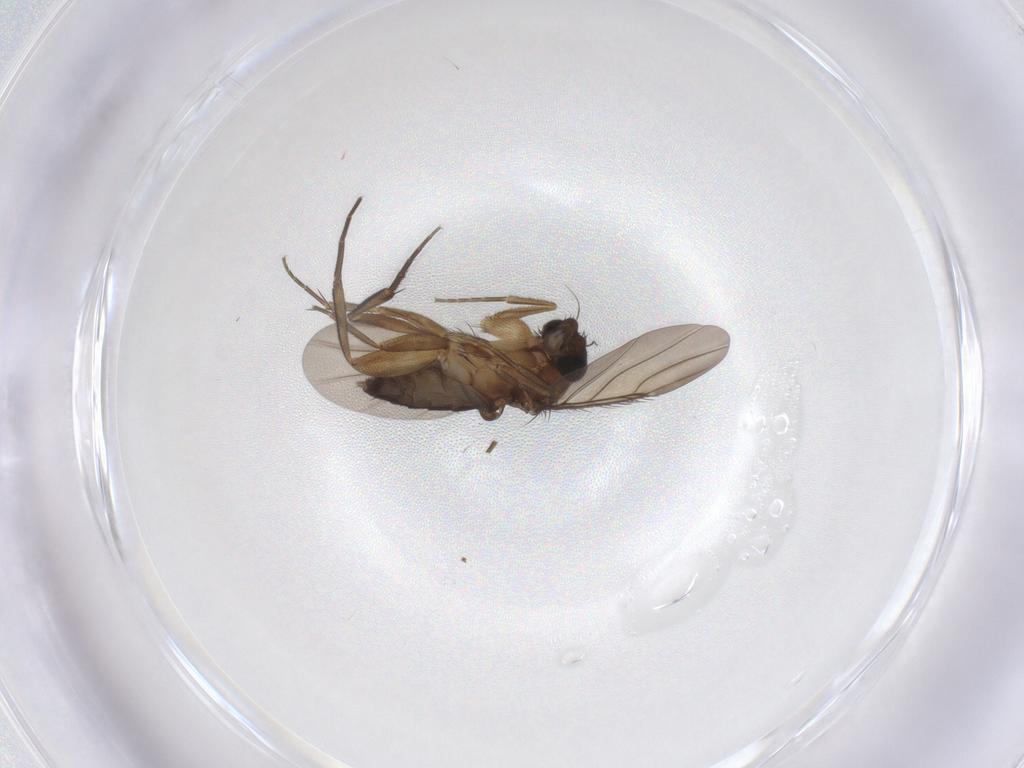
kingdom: Animalia
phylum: Arthropoda
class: Insecta
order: Diptera
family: Phoridae
